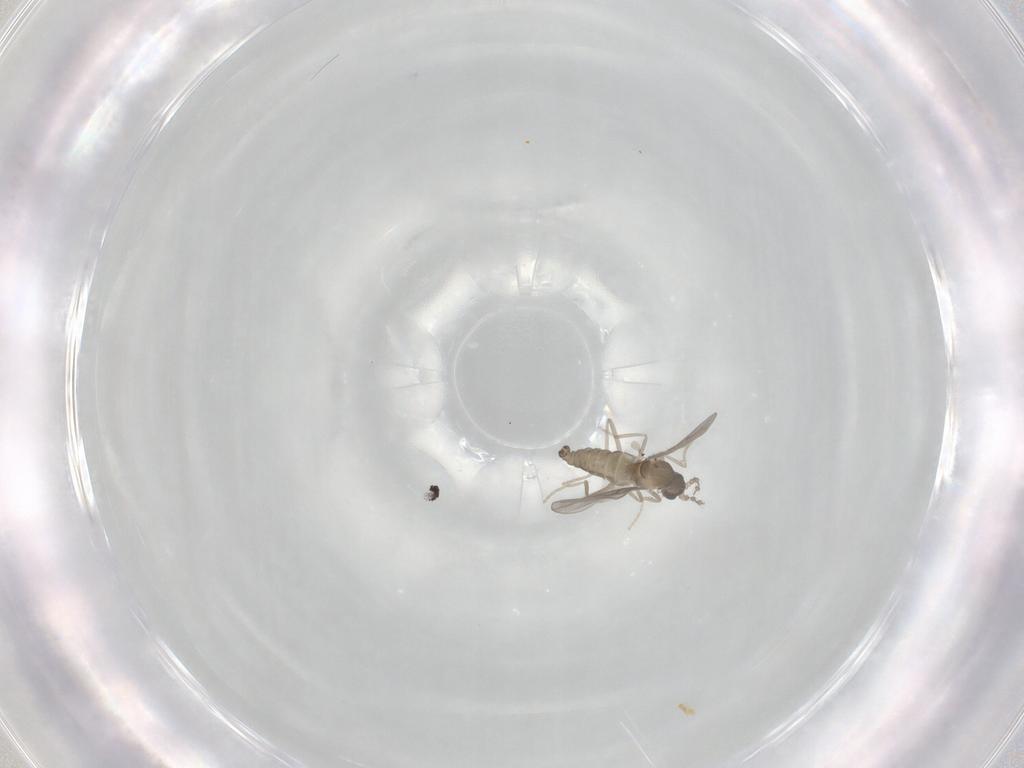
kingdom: Animalia
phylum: Arthropoda
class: Insecta
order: Diptera
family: Cecidomyiidae
